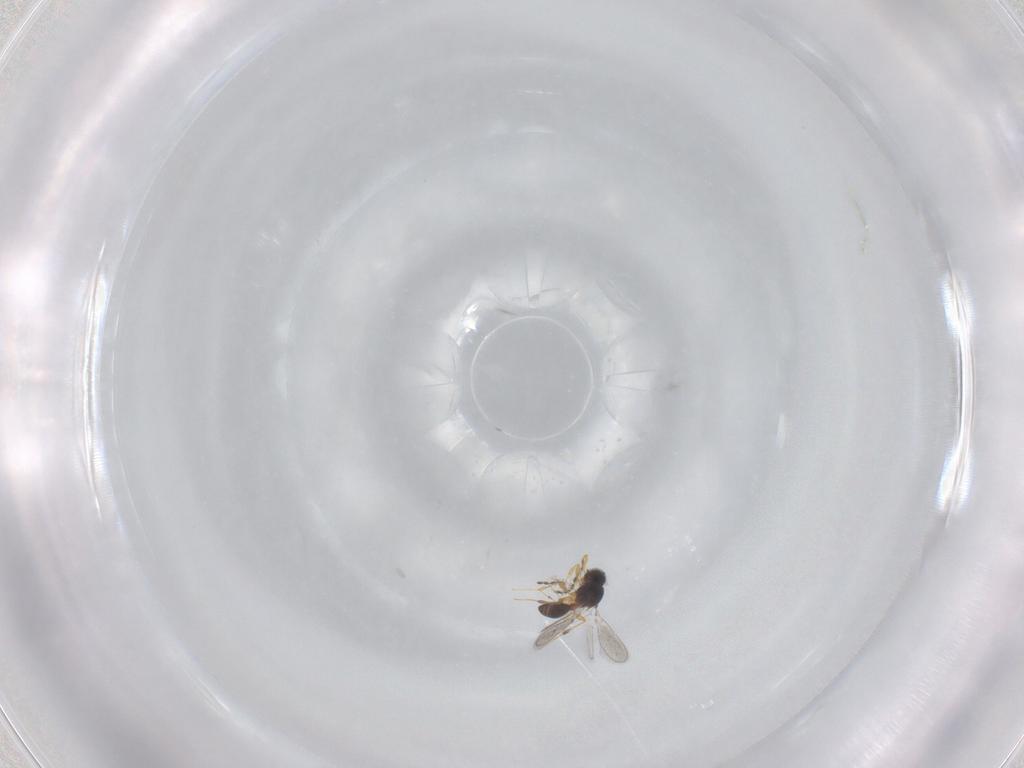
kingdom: Animalia
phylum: Arthropoda
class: Insecta
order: Hymenoptera
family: Platygastridae
